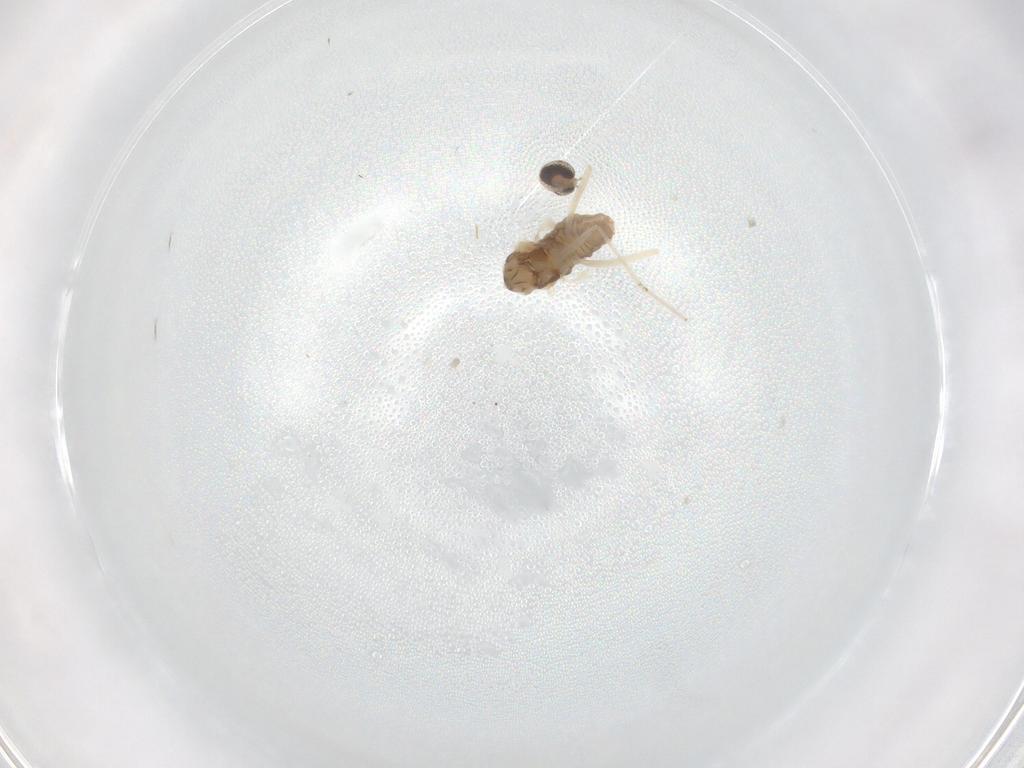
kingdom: Animalia
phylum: Arthropoda
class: Insecta
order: Diptera
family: Cecidomyiidae
